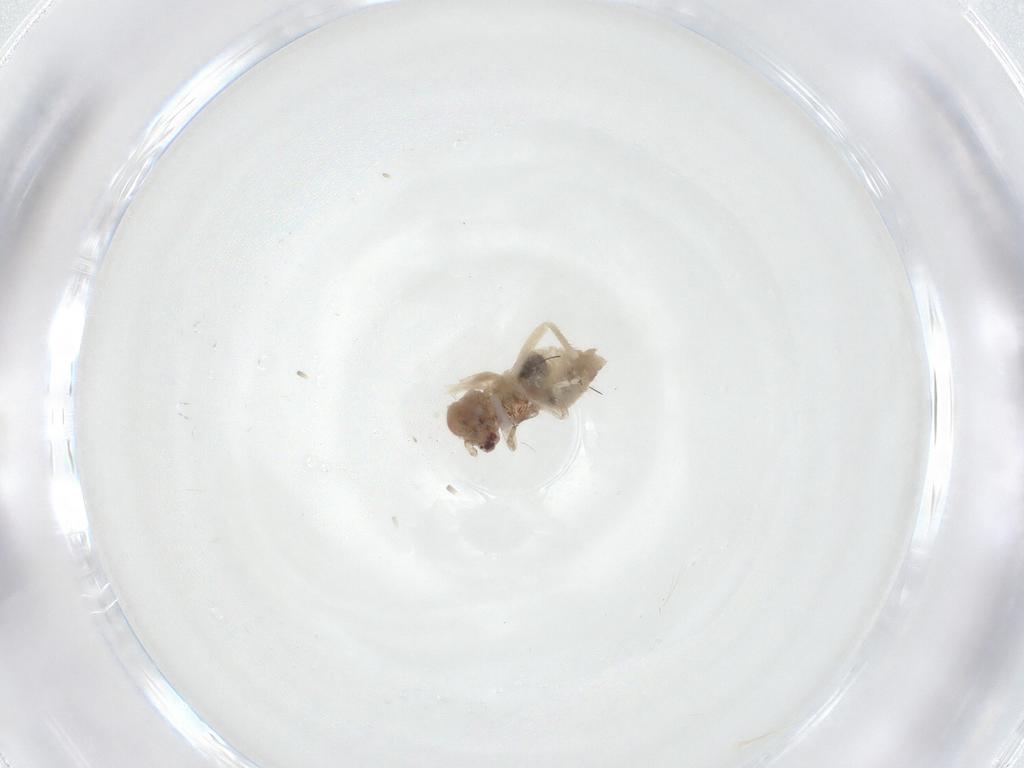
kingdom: Animalia
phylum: Arthropoda
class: Insecta
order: Psocodea
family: Amphipsocidae
